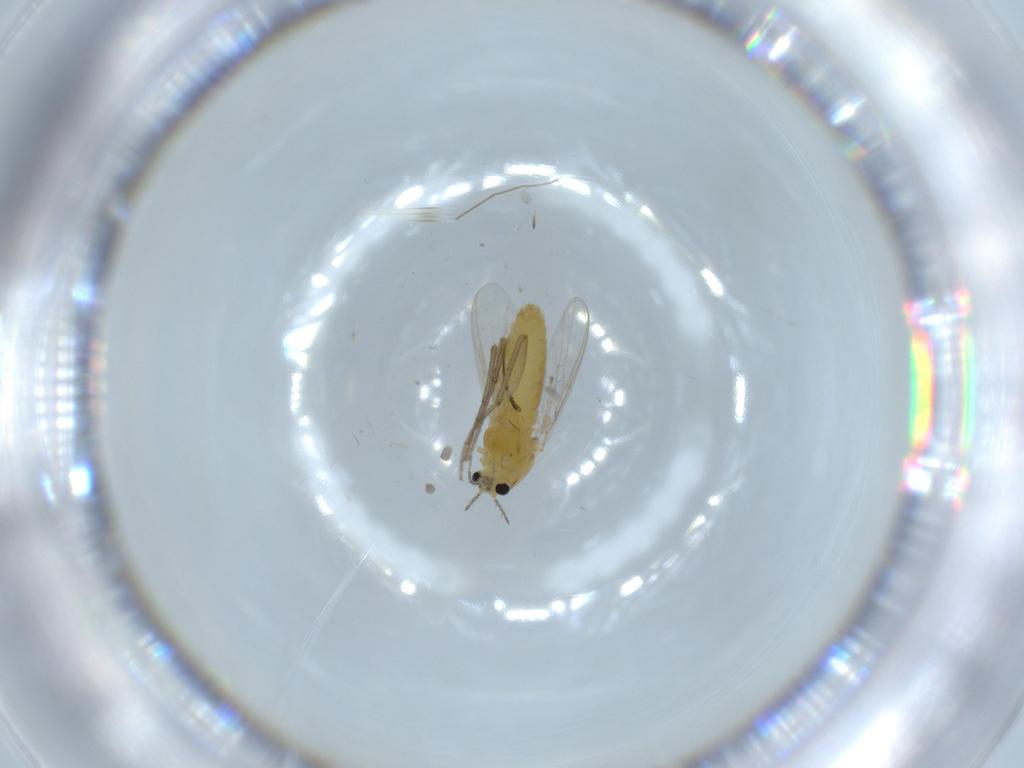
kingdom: Animalia
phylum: Arthropoda
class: Insecta
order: Diptera
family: Chironomidae
